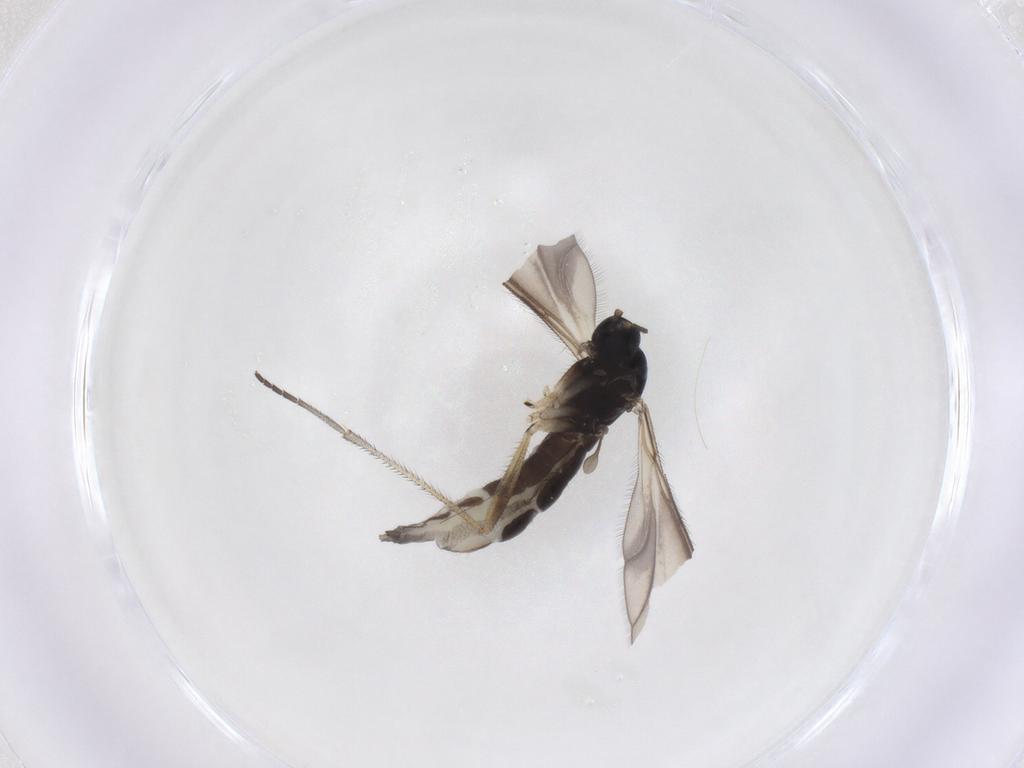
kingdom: Animalia
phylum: Arthropoda
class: Insecta
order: Diptera
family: Sciaridae
